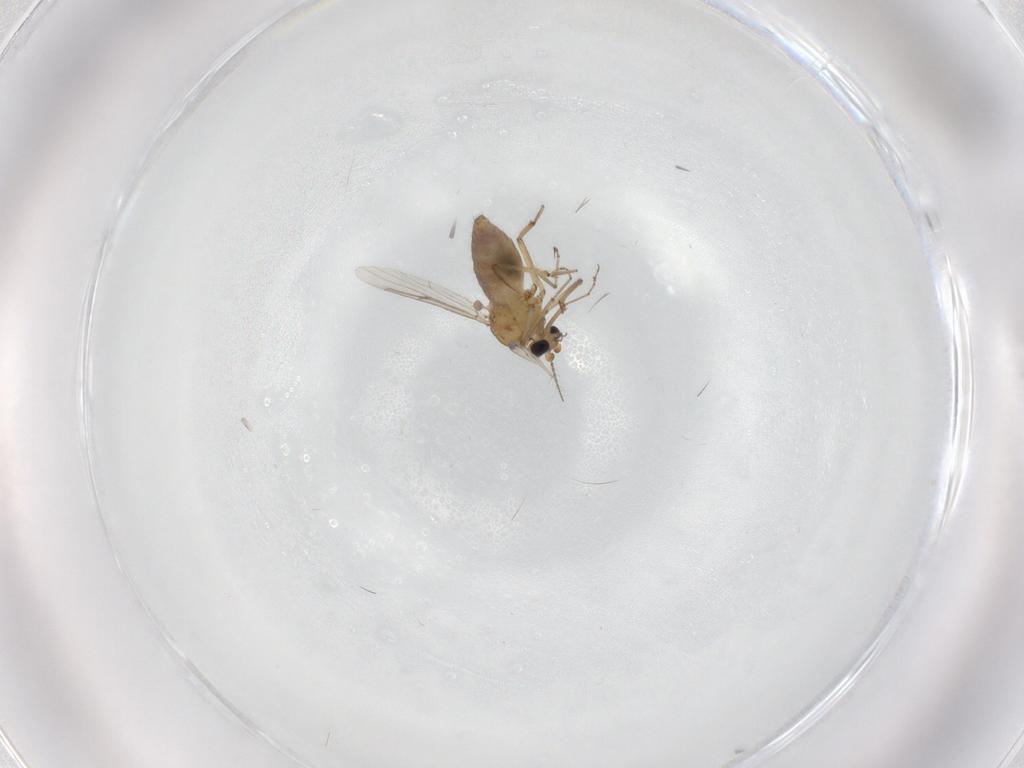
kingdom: Animalia
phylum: Arthropoda
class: Insecta
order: Diptera
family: Ceratopogonidae
